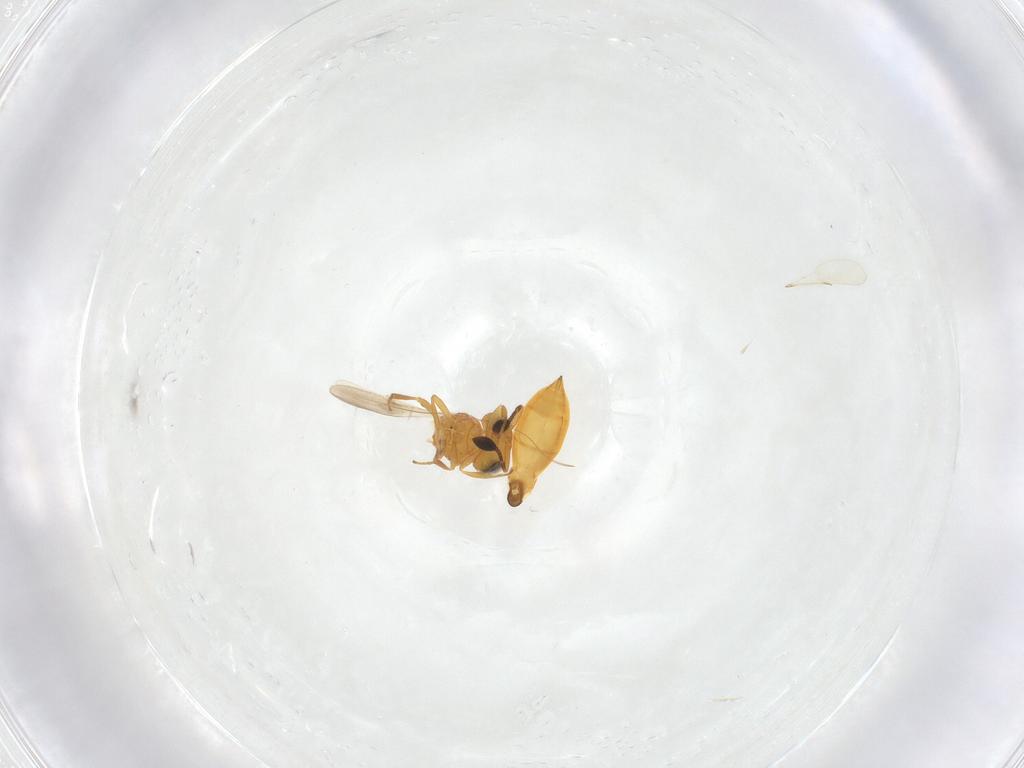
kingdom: Animalia
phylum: Arthropoda
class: Insecta
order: Hymenoptera
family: Scelionidae
